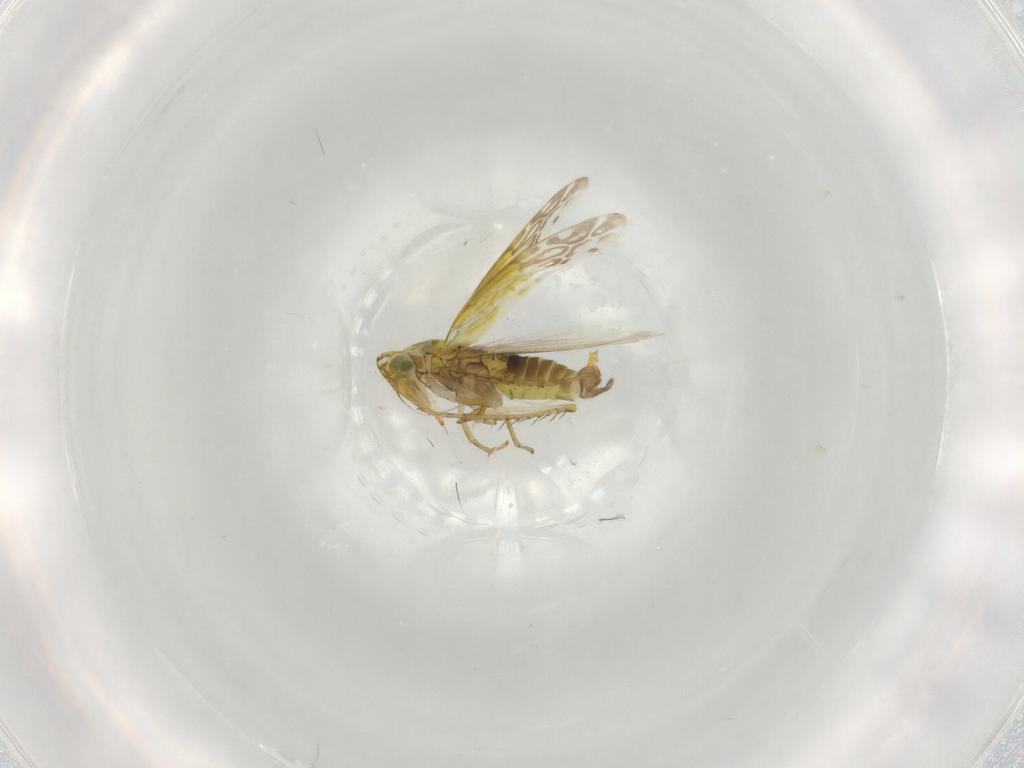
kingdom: Animalia
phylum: Arthropoda
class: Insecta
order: Hemiptera
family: Cicadellidae
